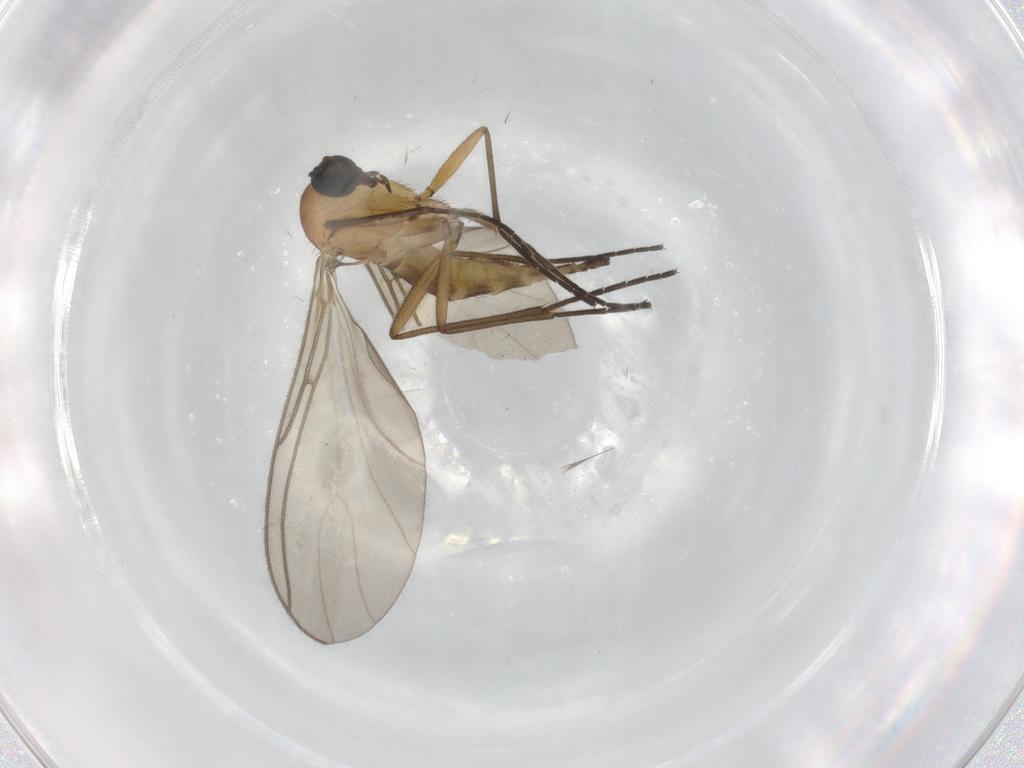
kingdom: Animalia
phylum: Arthropoda
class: Insecta
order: Diptera
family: Sciaridae
